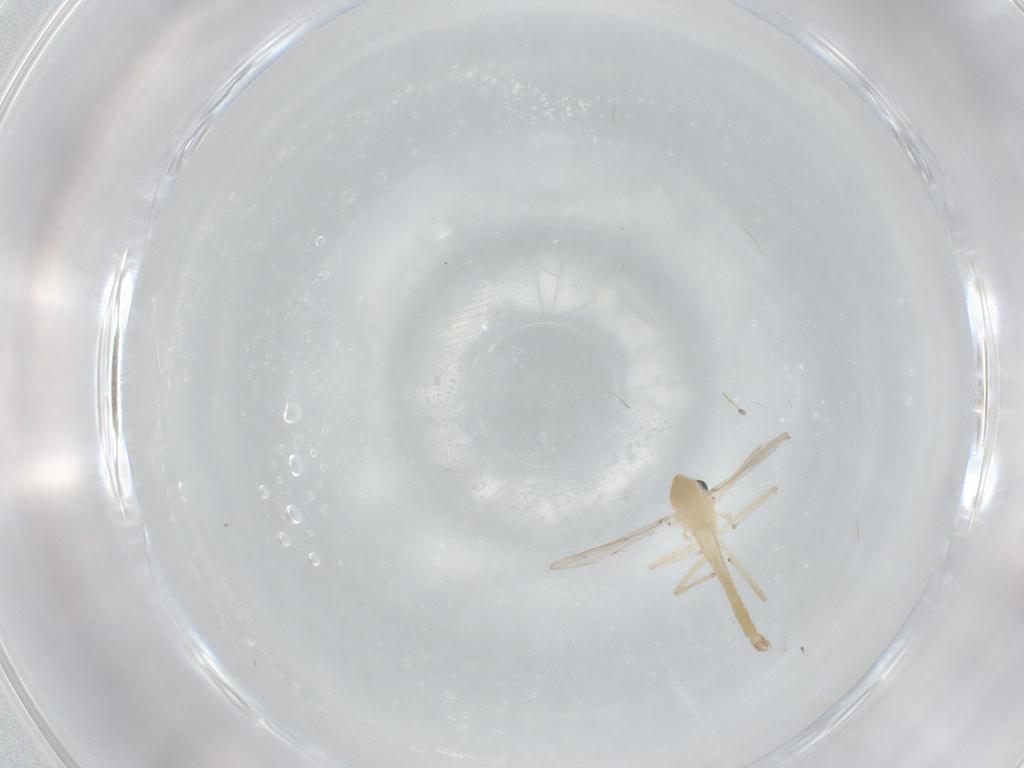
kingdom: Animalia
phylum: Arthropoda
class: Insecta
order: Diptera
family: Chironomidae
